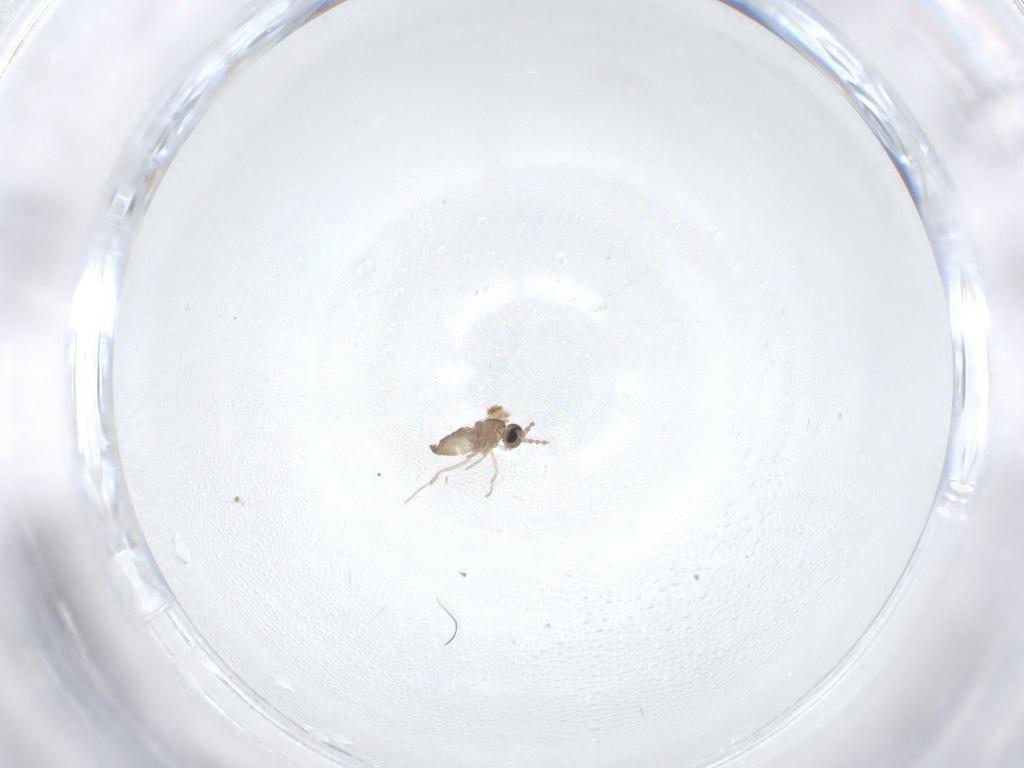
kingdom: Animalia
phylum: Arthropoda
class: Insecta
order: Diptera
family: Cecidomyiidae
